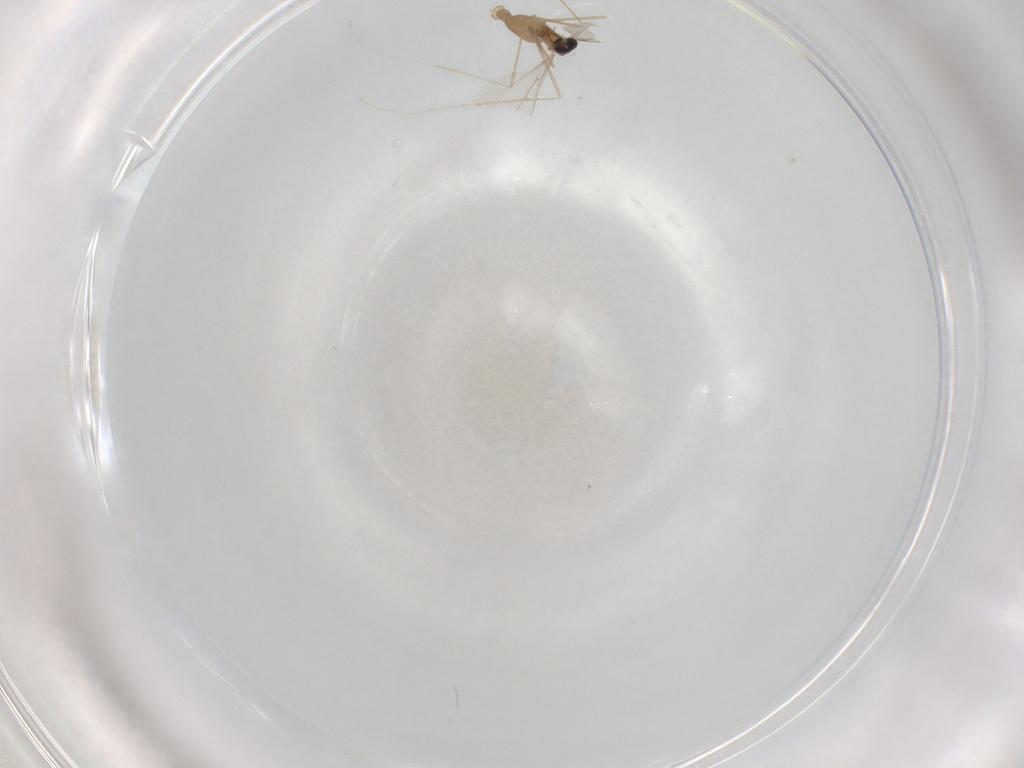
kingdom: Animalia
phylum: Arthropoda
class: Insecta
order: Diptera
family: Cecidomyiidae
